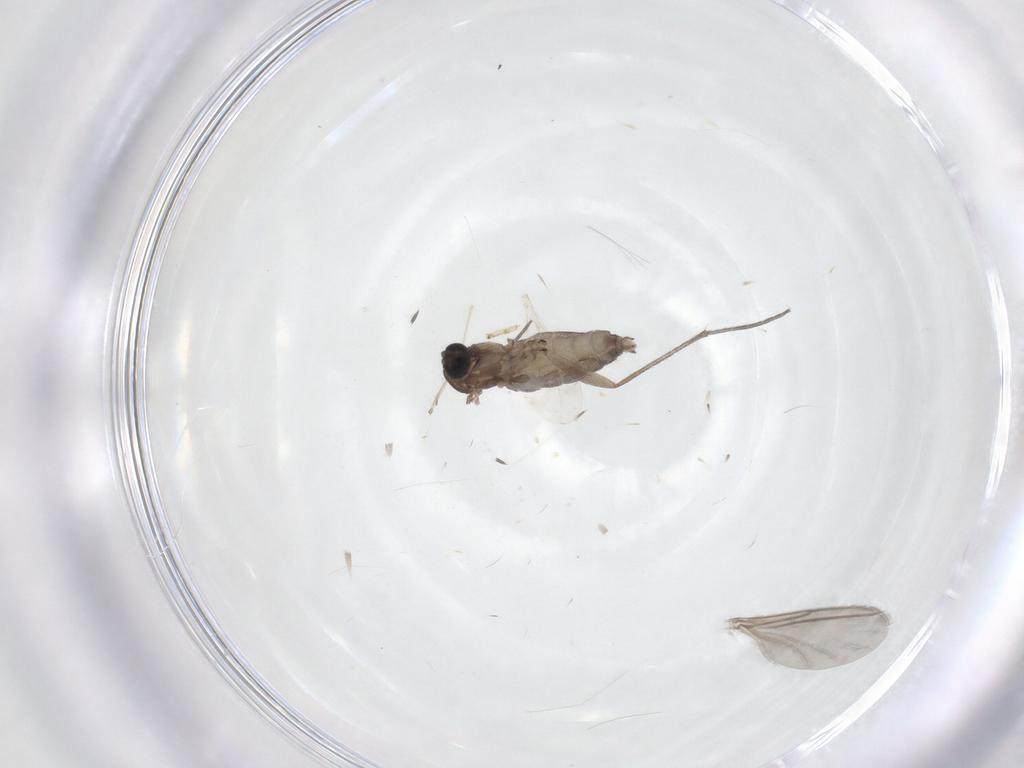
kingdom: Animalia
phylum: Arthropoda
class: Insecta
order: Diptera
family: Sciaridae
